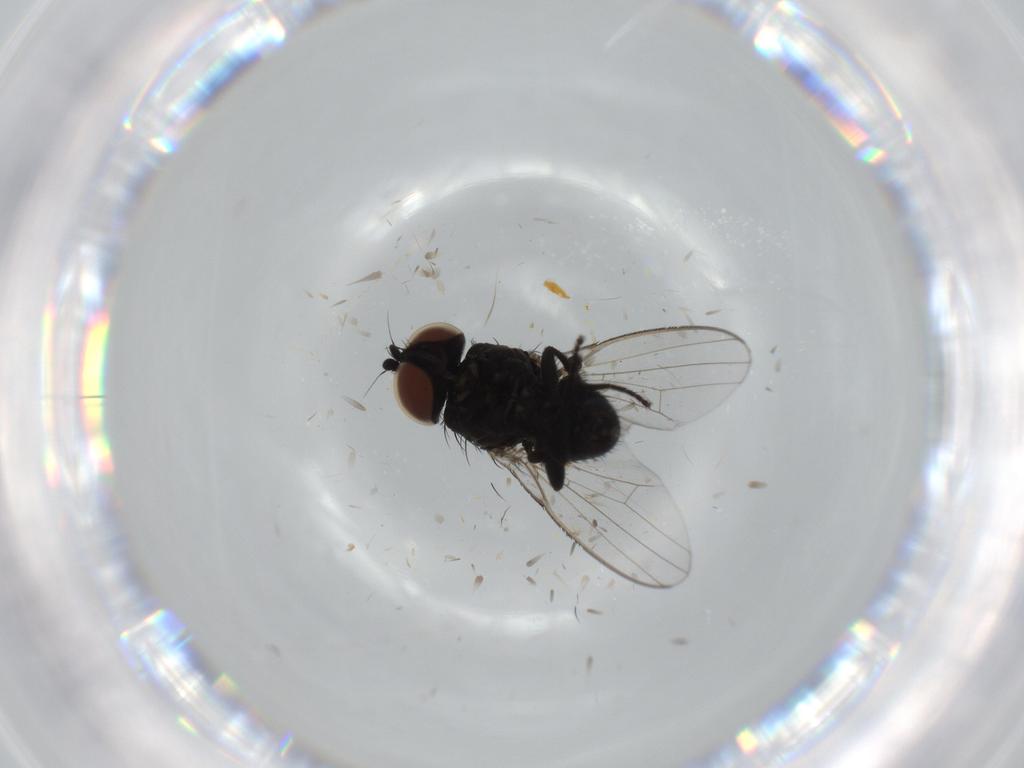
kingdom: Animalia
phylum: Arthropoda
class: Insecta
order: Diptera
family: Milichiidae
